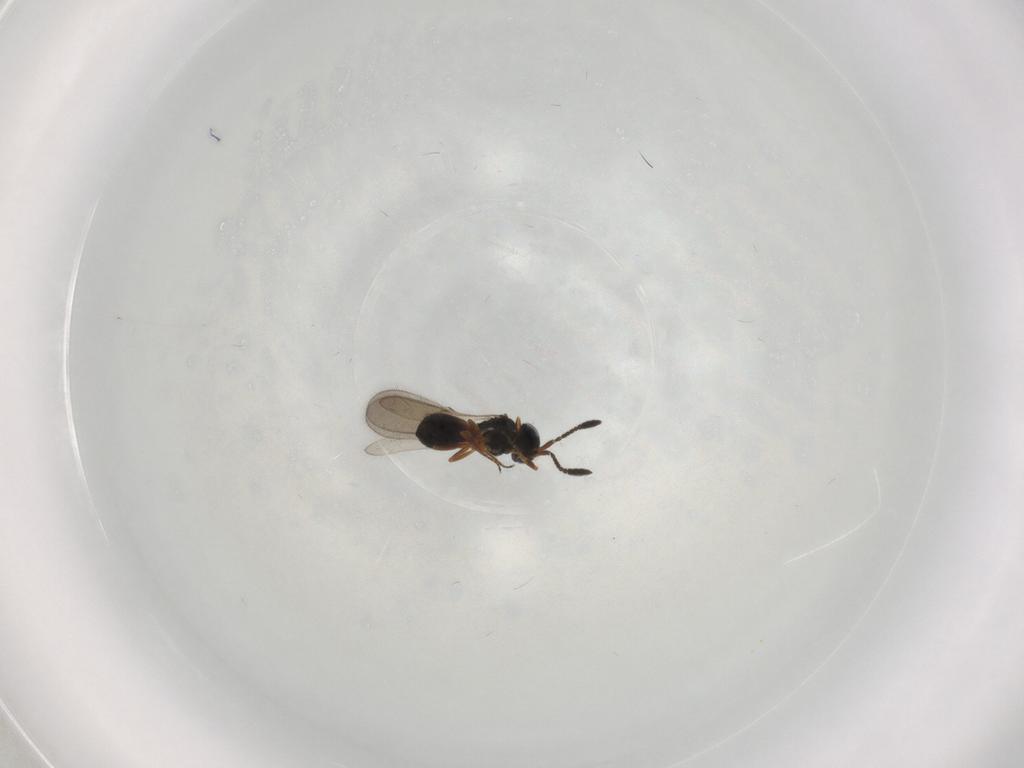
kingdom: Animalia
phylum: Arthropoda
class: Insecta
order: Hymenoptera
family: Scelionidae
